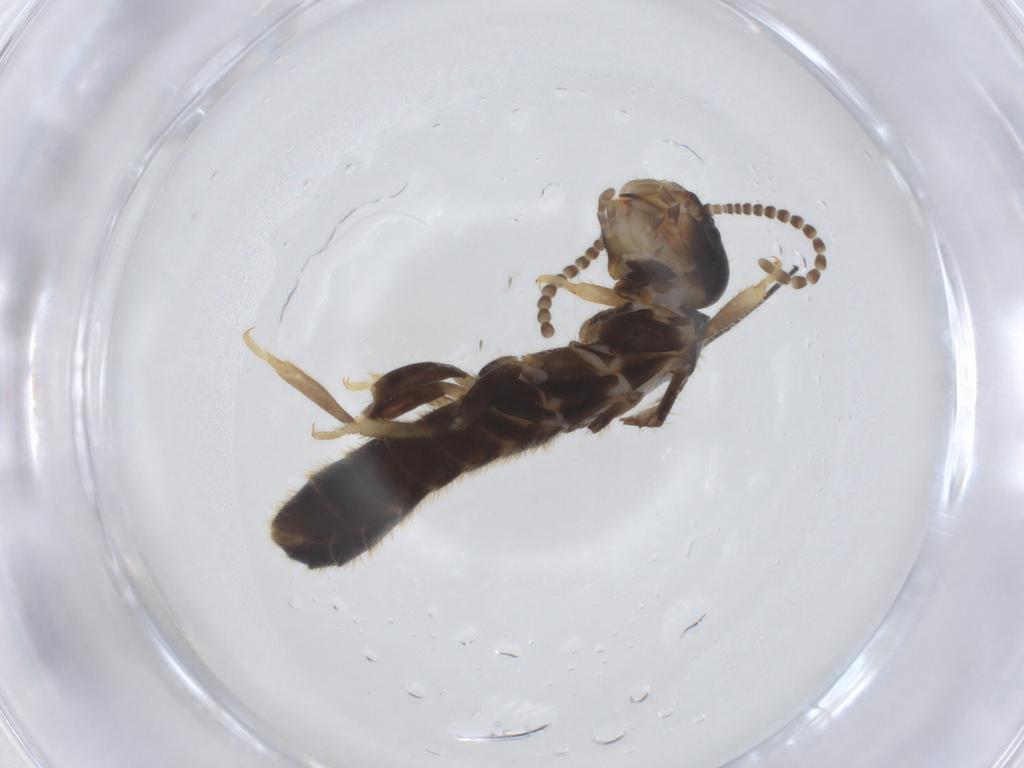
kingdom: Animalia
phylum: Arthropoda
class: Insecta
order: Blattodea
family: Rhinotermitidae
